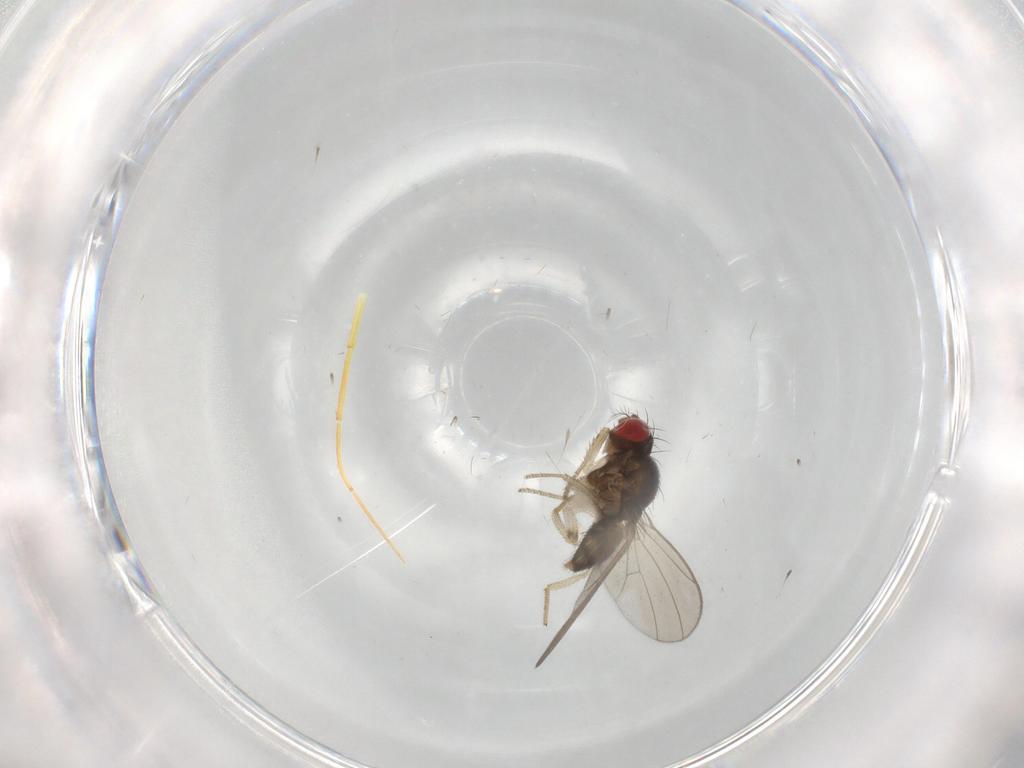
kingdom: Animalia
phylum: Arthropoda
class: Insecta
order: Diptera
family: Drosophilidae
